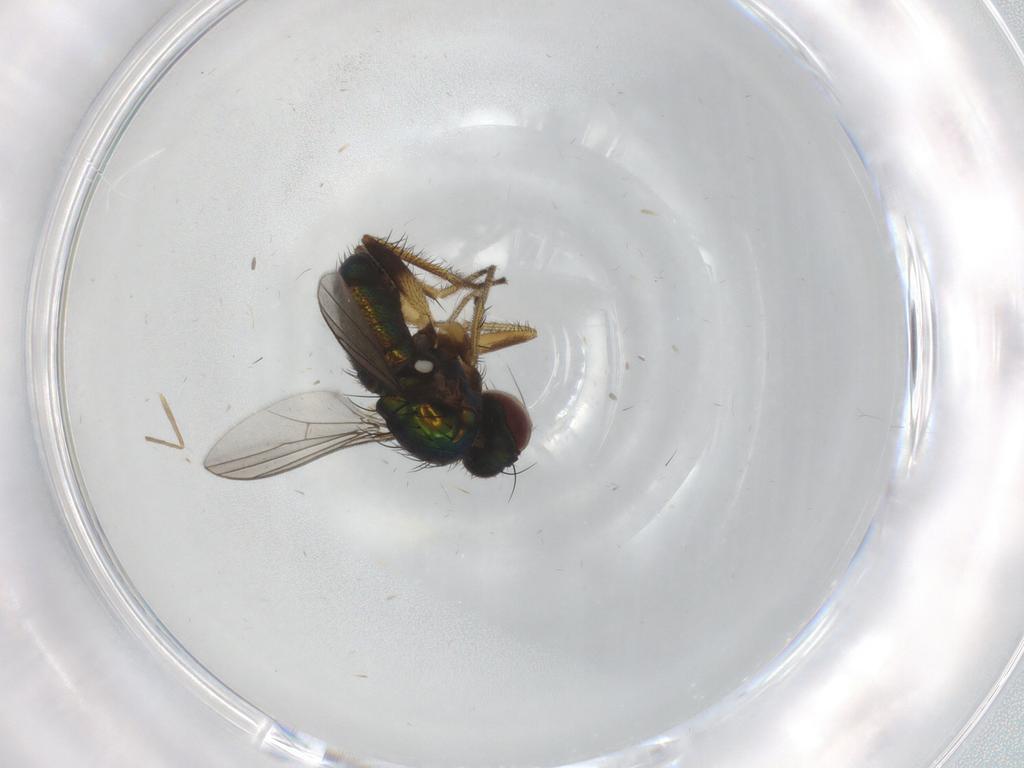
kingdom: Animalia
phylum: Arthropoda
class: Insecta
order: Diptera
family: Dolichopodidae
